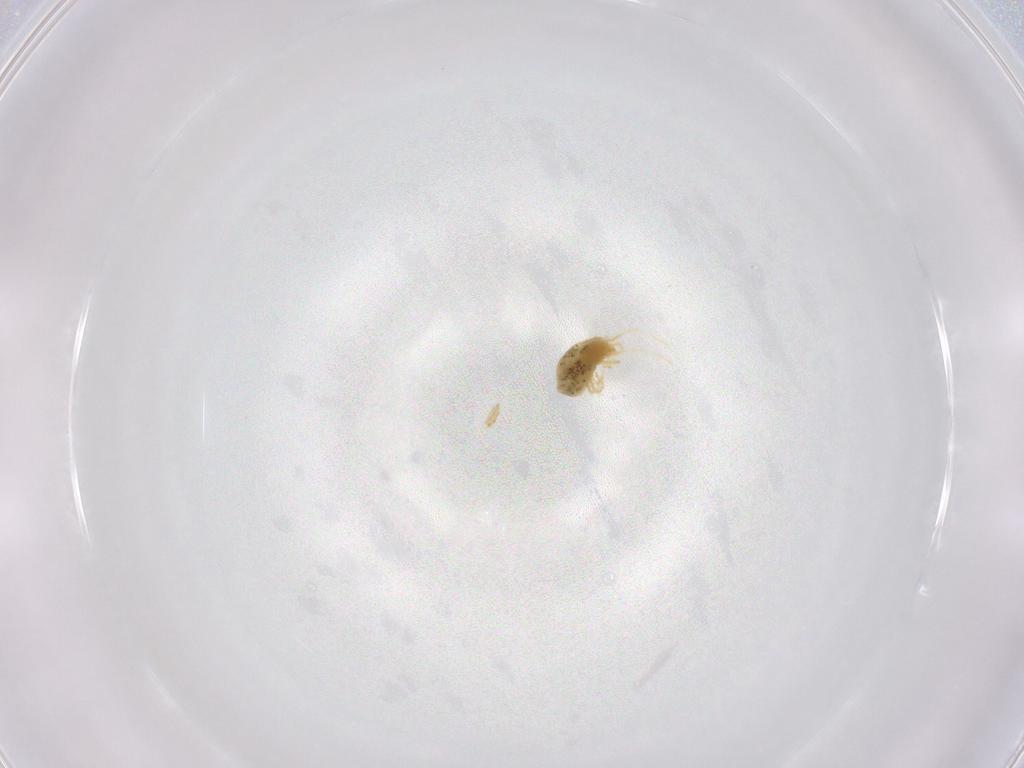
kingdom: Animalia
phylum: Arthropoda
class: Arachnida
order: Trombidiformes
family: Tetranychidae
